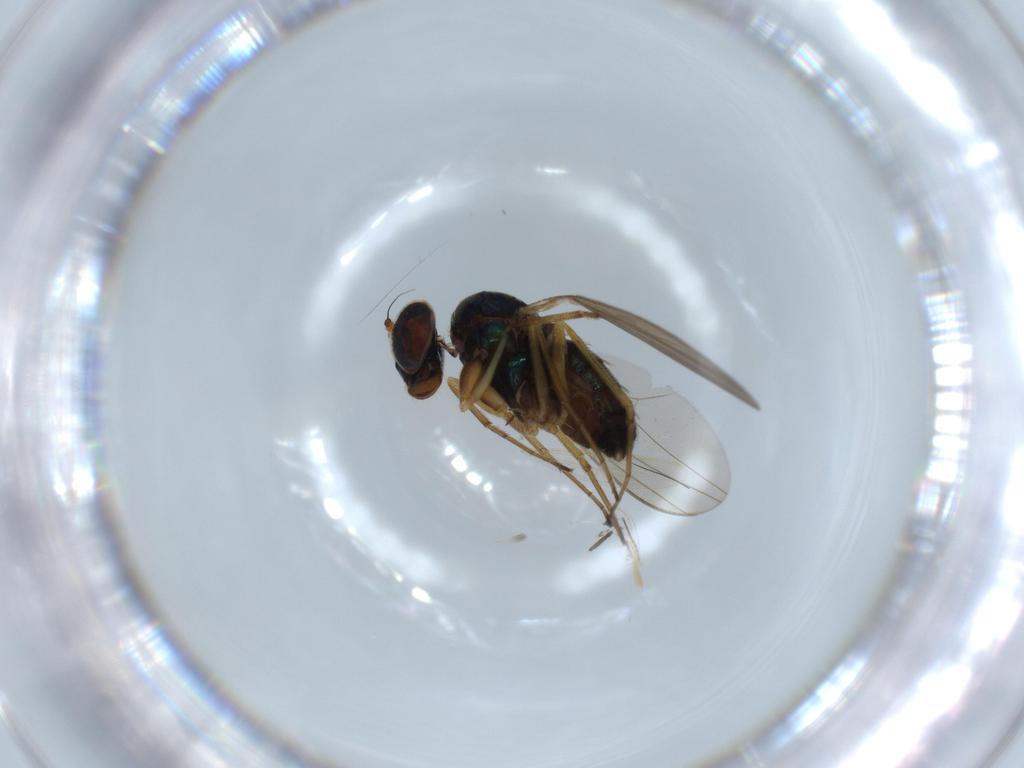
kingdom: Animalia
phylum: Arthropoda
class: Insecta
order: Diptera
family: Dolichopodidae
